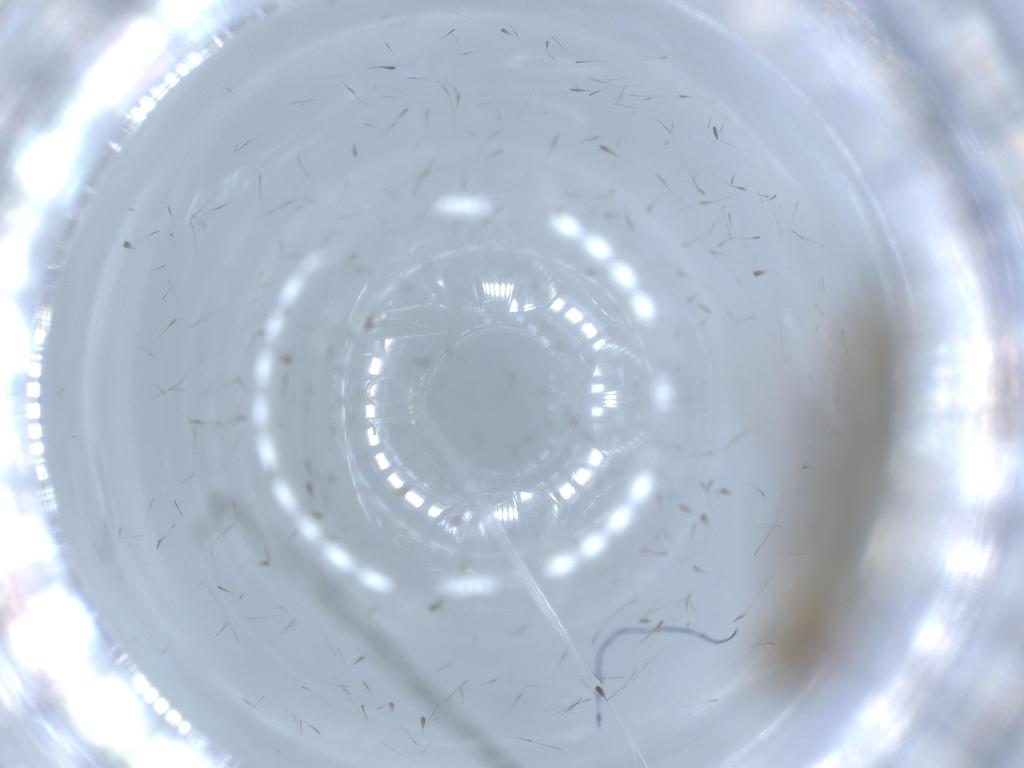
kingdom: Animalia
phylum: Arthropoda
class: Insecta
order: Lepidoptera
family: Tineidae
